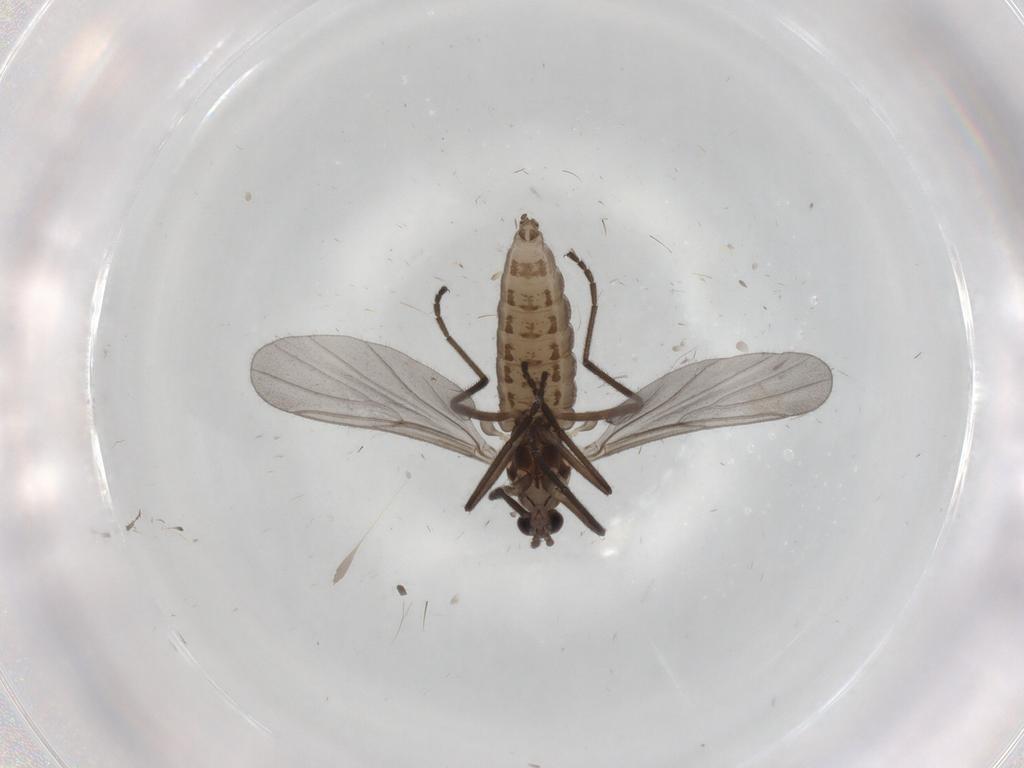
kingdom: Animalia
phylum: Arthropoda
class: Insecta
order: Diptera
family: Cecidomyiidae
